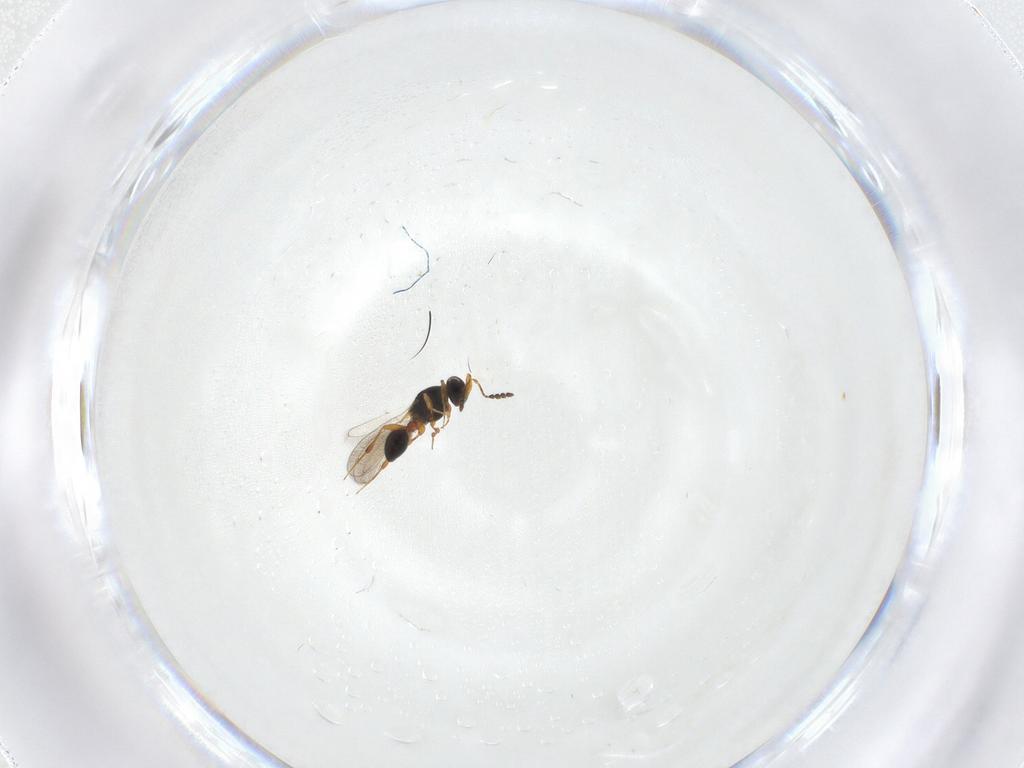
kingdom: Animalia
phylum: Arthropoda
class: Insecta
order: Hymenoptera
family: Platygastridae
